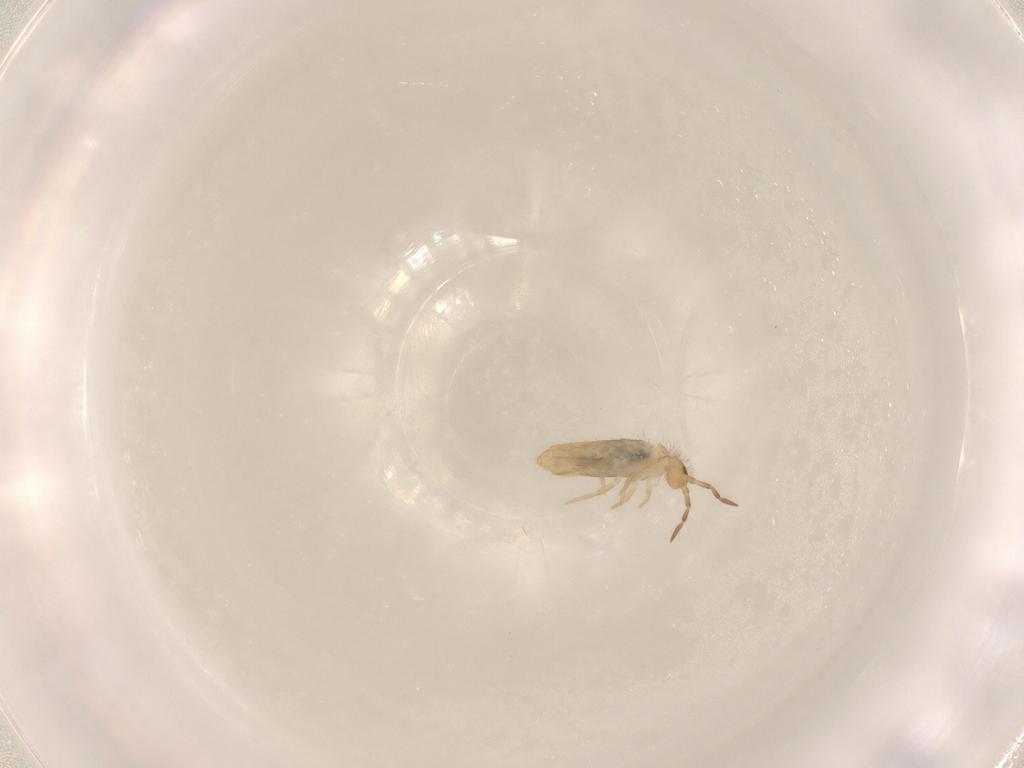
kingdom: Animalia
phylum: Arthropoda
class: Collembola
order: Entomobryomorpha
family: Entomobryidae
